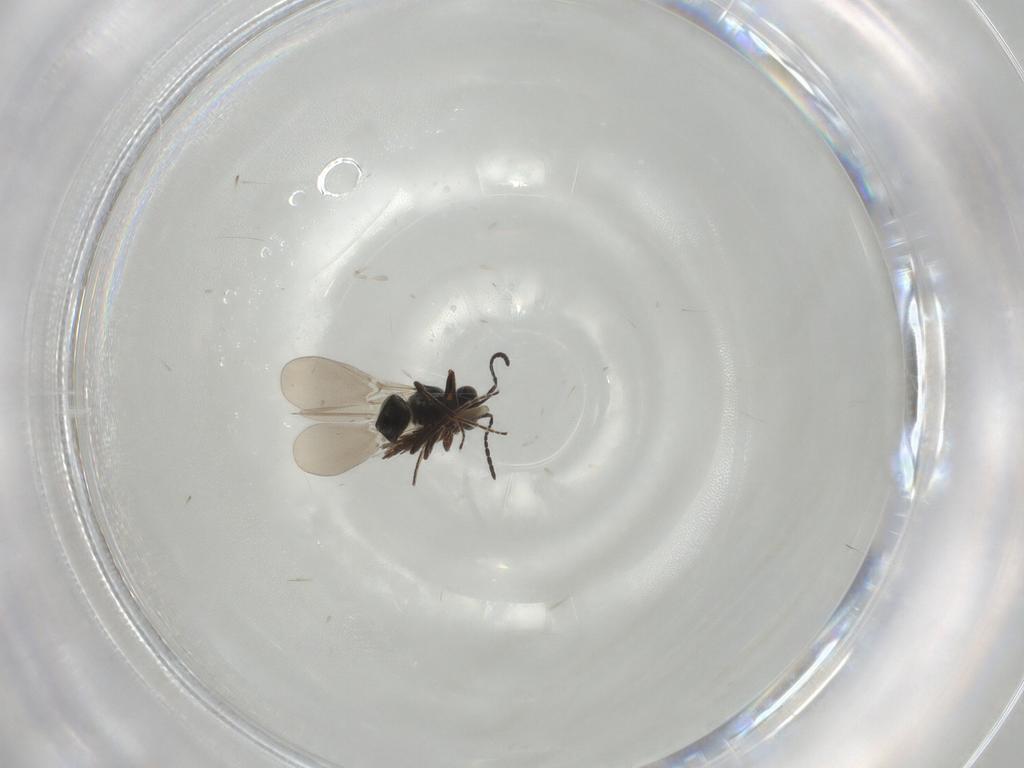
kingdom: Animalia
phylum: Arthropoda
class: Insecta
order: Hymenoptera
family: Platygastridae
